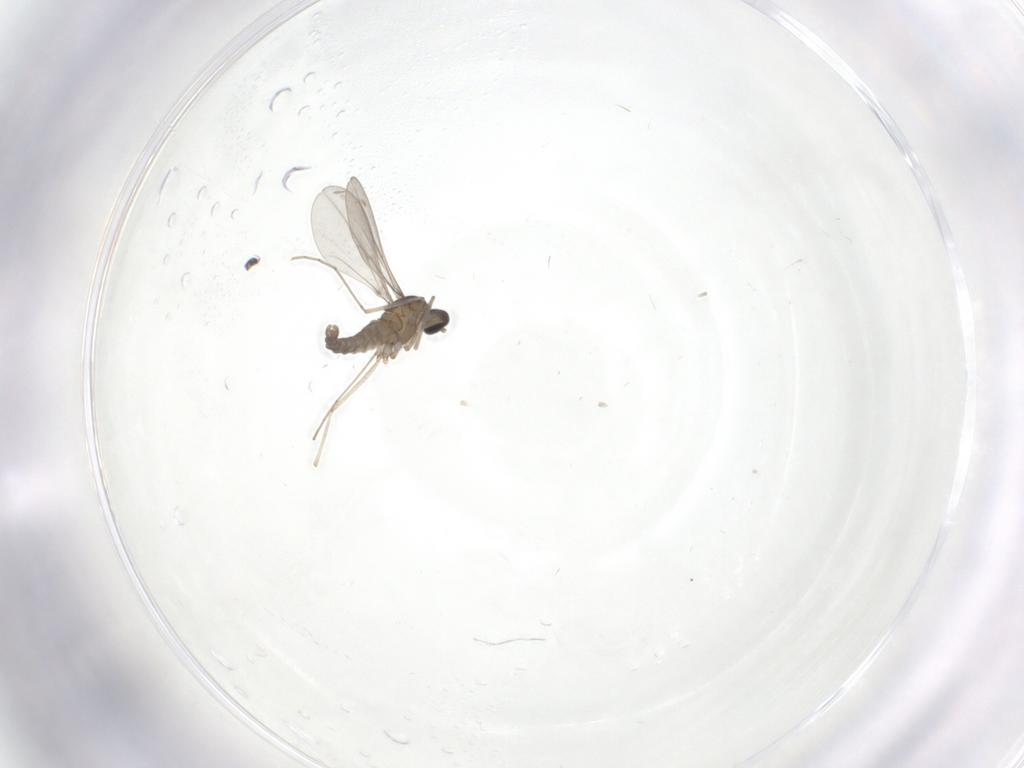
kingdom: Animalia
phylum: Arthropoda
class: Insecta
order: Diptera
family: Cecidomyiidae
